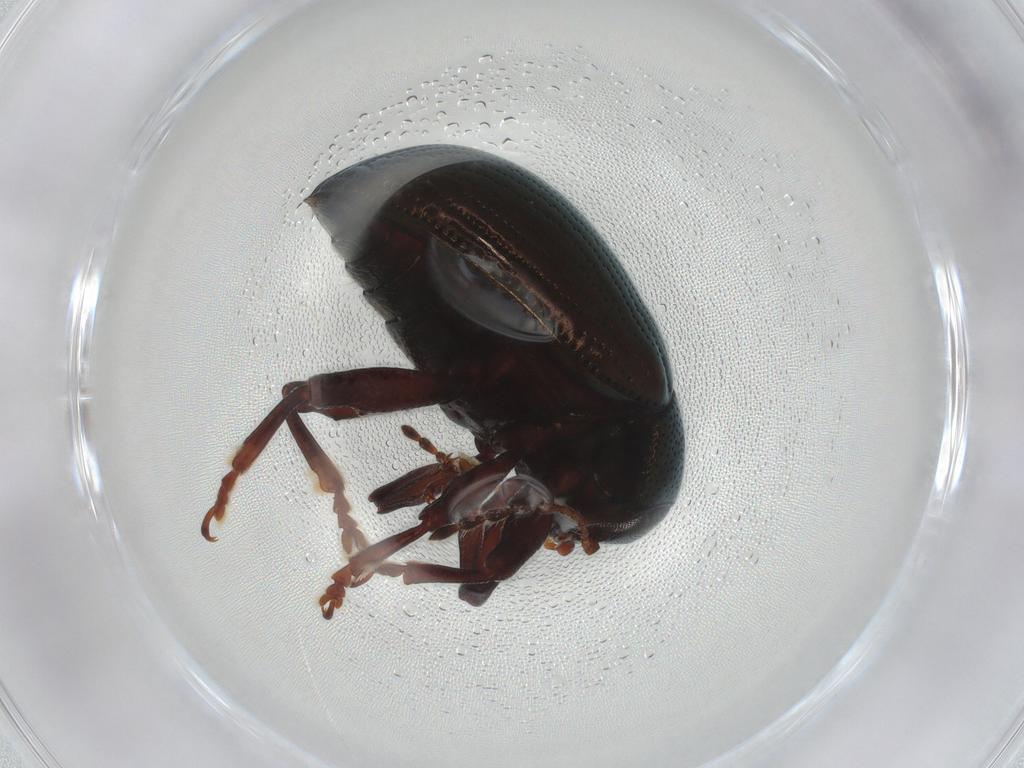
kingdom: Animalia
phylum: Arthropoda
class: Insecta
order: Coleoptera
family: Chrysomelidae
